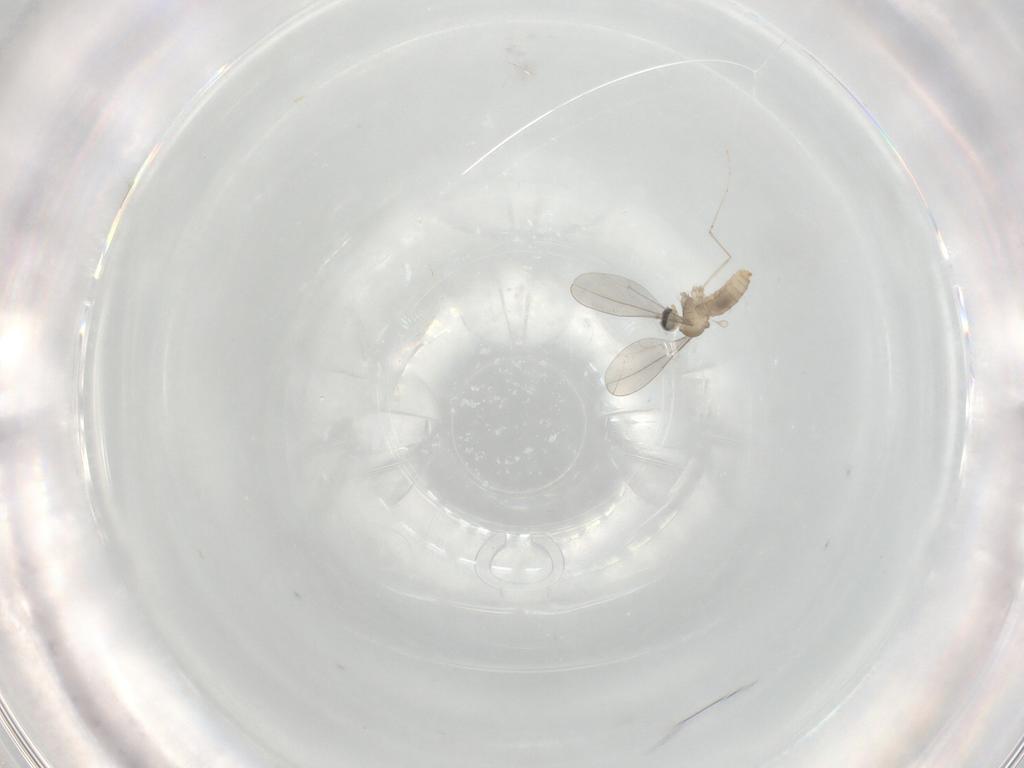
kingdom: Animalia
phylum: Arthropoda
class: Insecta
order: Diptera
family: Cecidomyiidae
